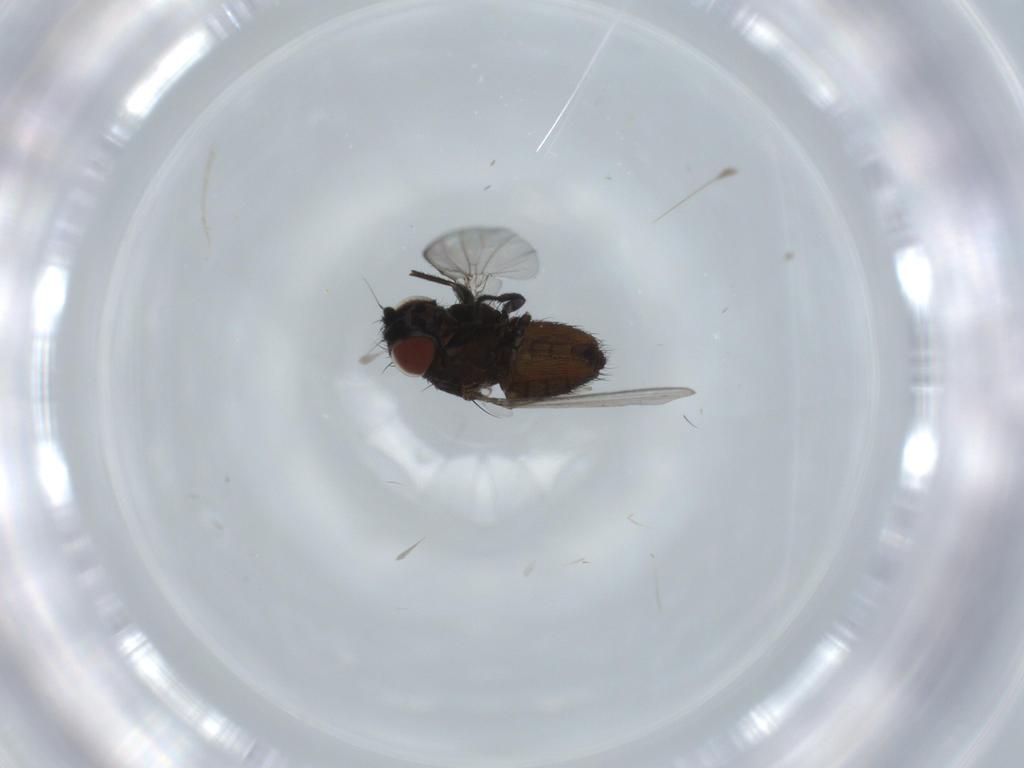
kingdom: Animalia
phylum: Arthropoda
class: Insecta
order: Diptera
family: Milichiidae
